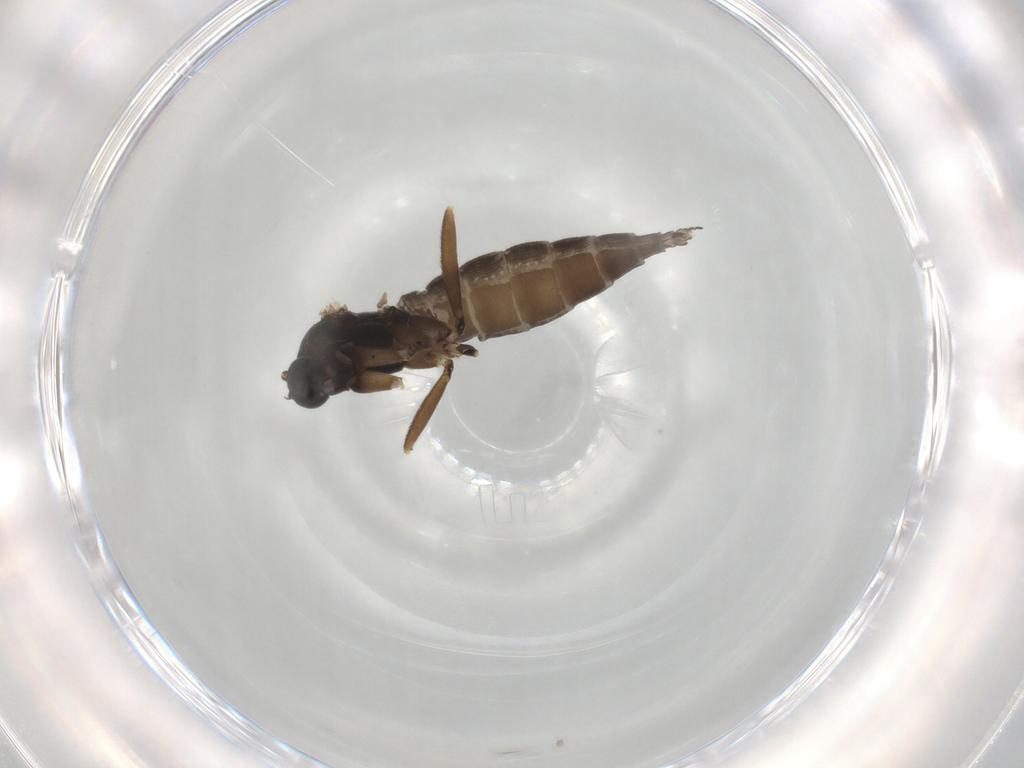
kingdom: Animalia
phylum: Arthropoda
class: Insecta
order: Diptera
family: Sciaridae
